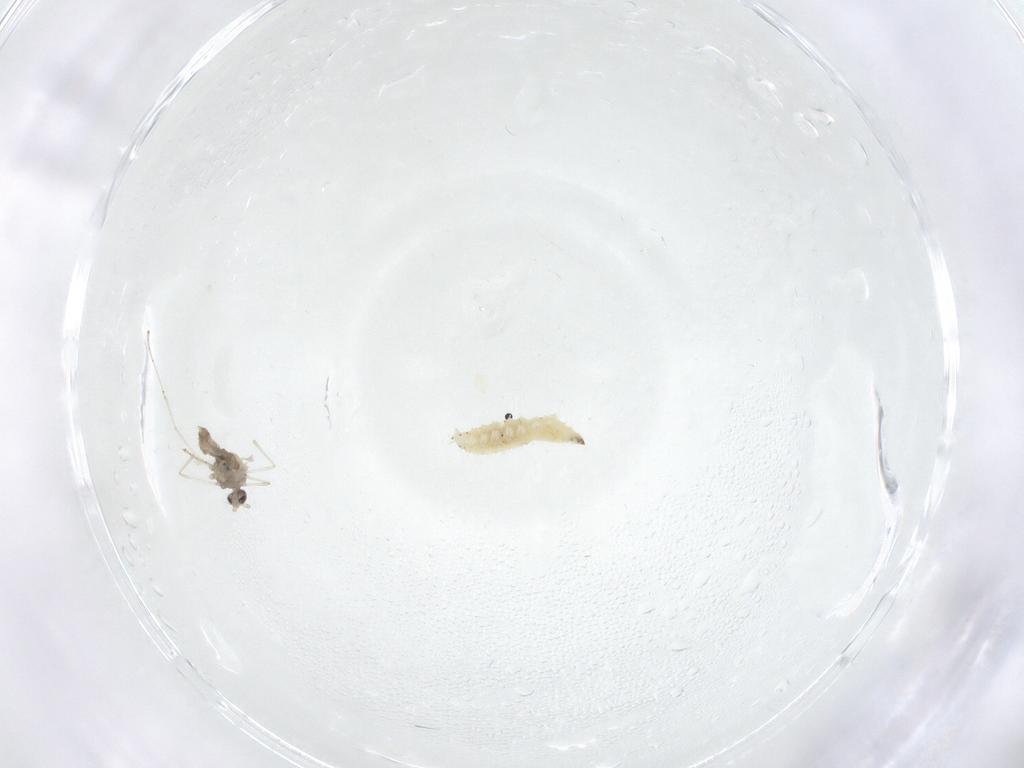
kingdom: Animalia
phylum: Arthropoda
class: Insecta
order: Diptera
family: Cecidomyiidae
